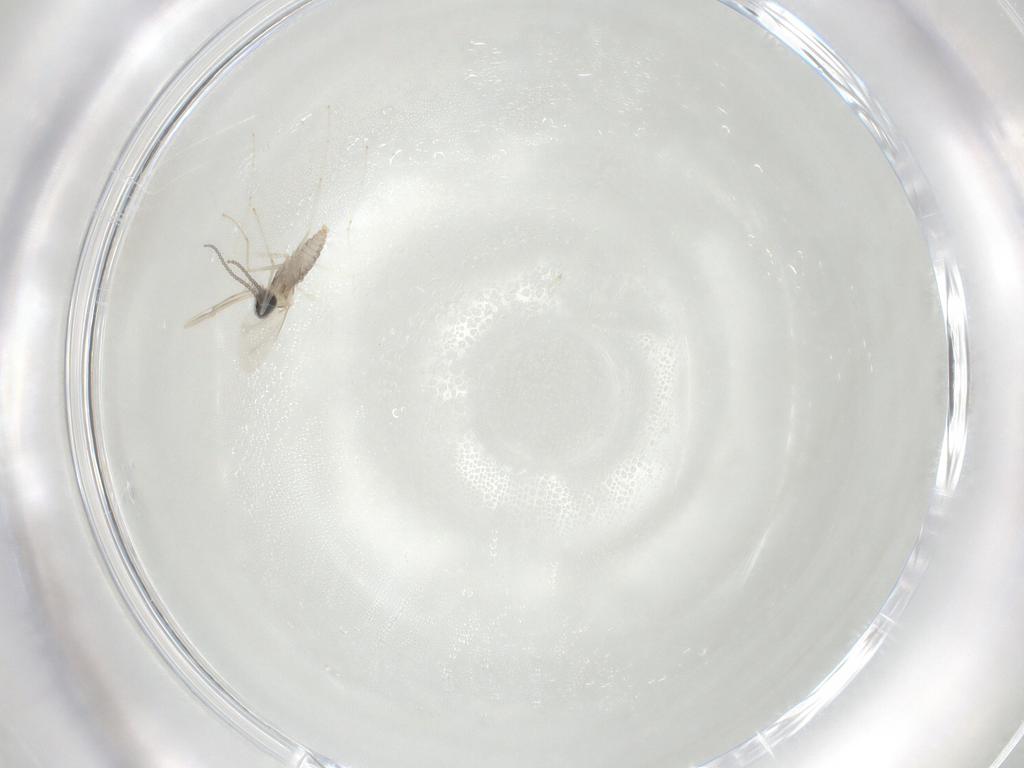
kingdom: Animalia
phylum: Arthropoda
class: Insecta
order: Diptera
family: Cecidomyiidae
